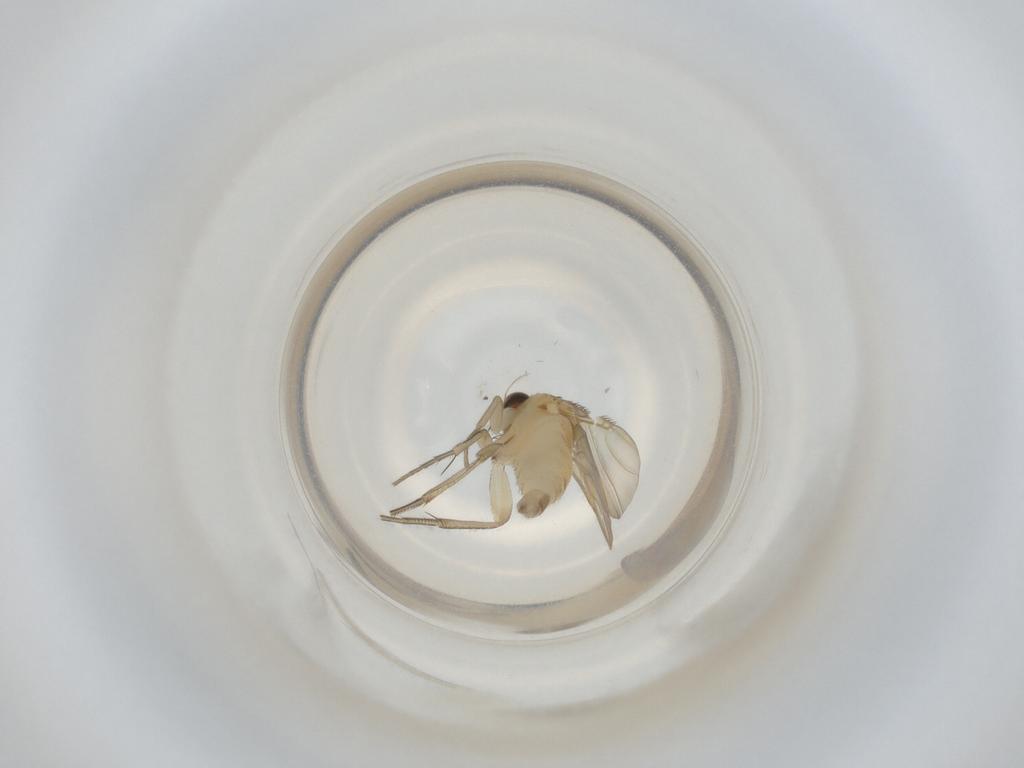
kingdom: Animalia
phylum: Arthropoda
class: Insecta
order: Diptera
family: Phoridae
